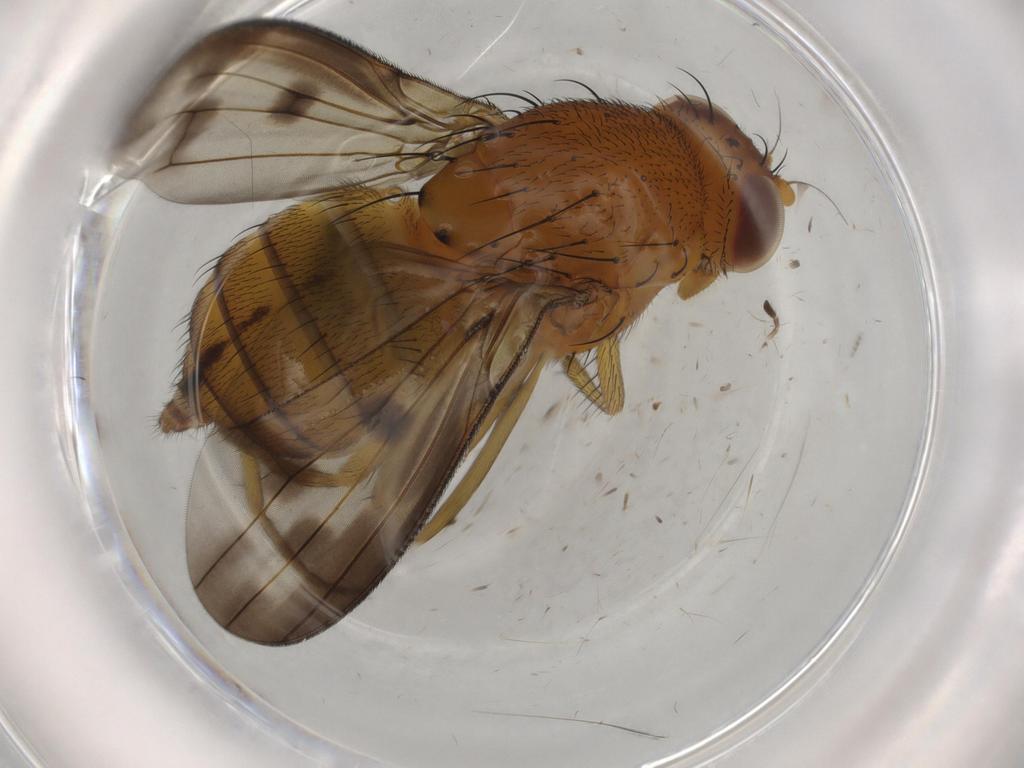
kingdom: Animalia
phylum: Arthropoda
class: Insecta
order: Diptera
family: Chironomidae
